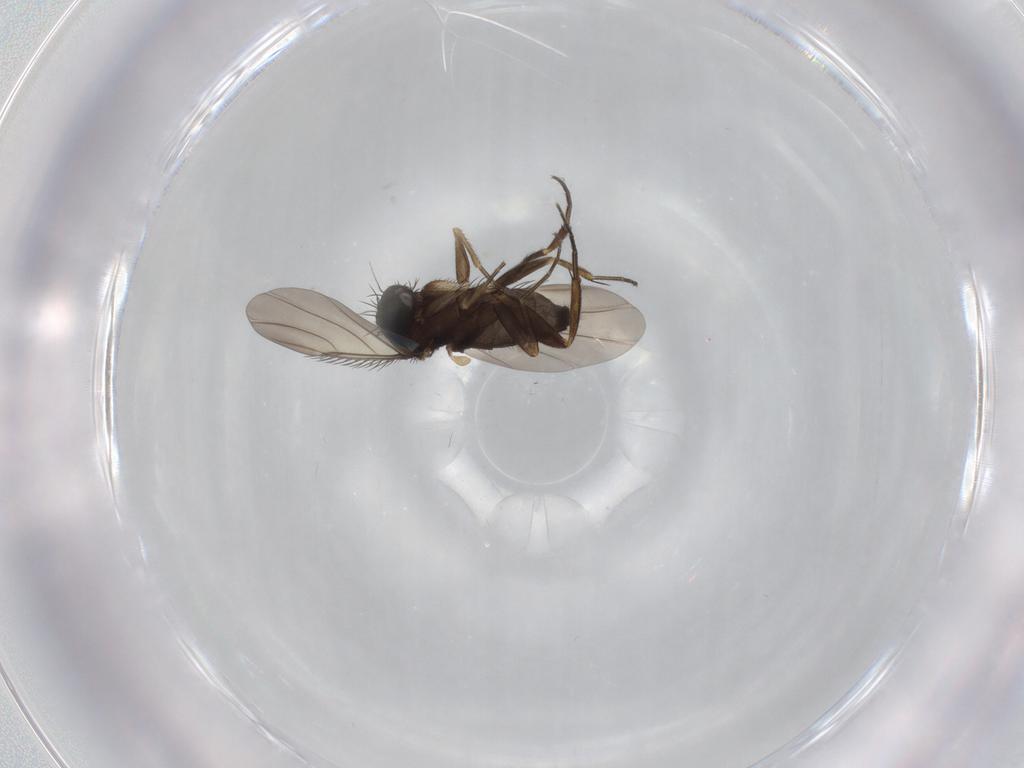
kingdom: Animalia
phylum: Arthropoda
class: Insecta
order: Diptera
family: Phoridae
